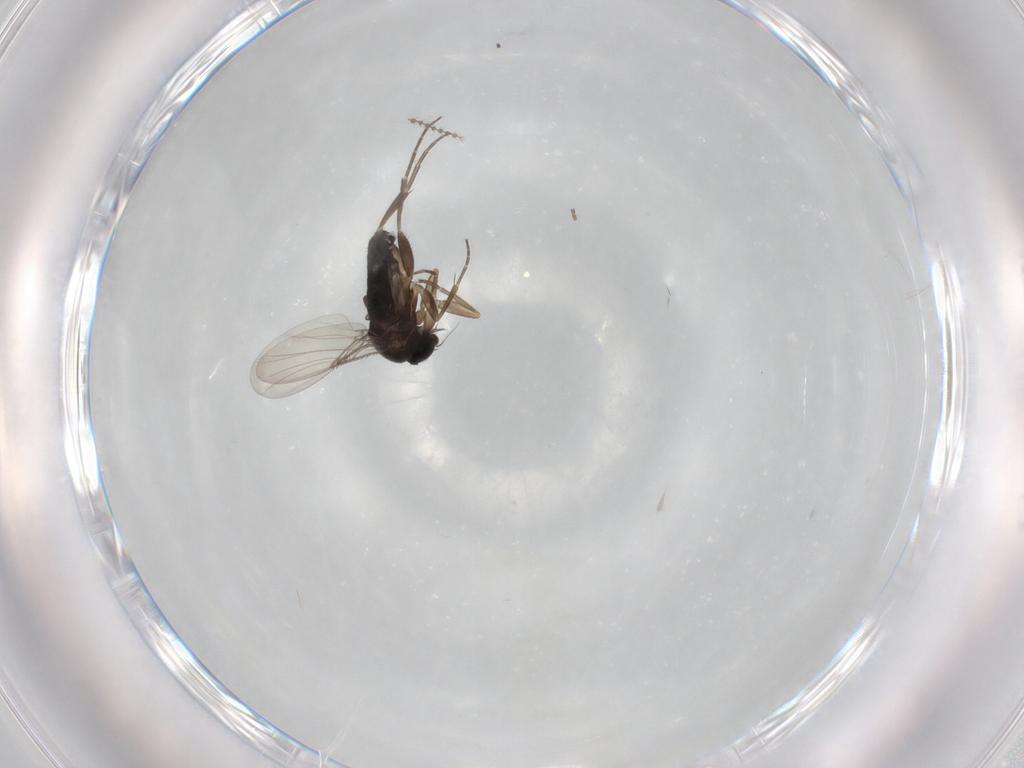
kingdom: Animalia
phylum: Arthropoda
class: Insecta
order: Diptera
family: Phoridae
